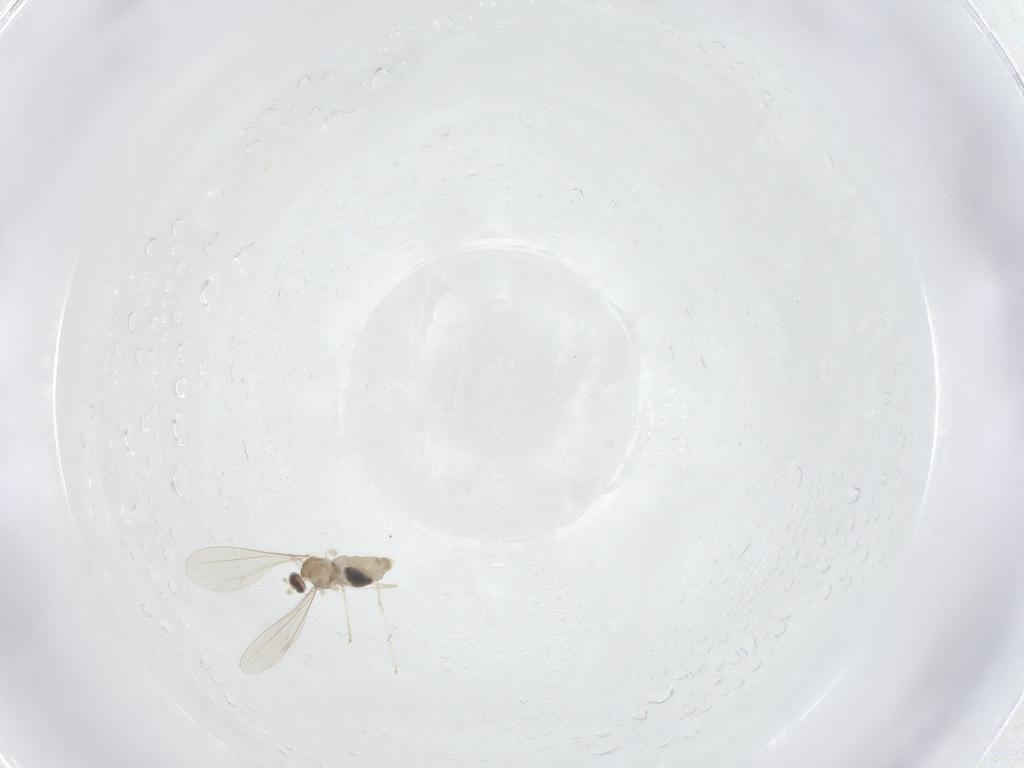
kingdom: Animalia
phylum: Arthropoda
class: Insecta
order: Diptera
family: Cecidomyiidae
